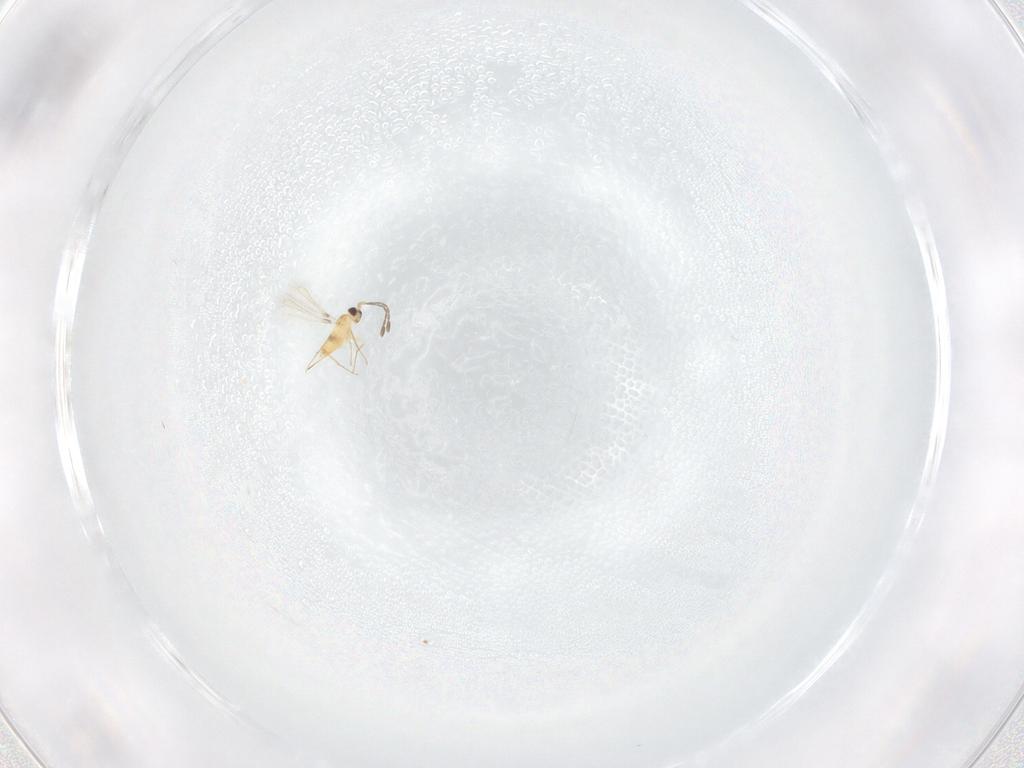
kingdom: Animalia
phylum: Arthropoda
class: Insecta
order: Hymenoptera
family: Mymaridae
